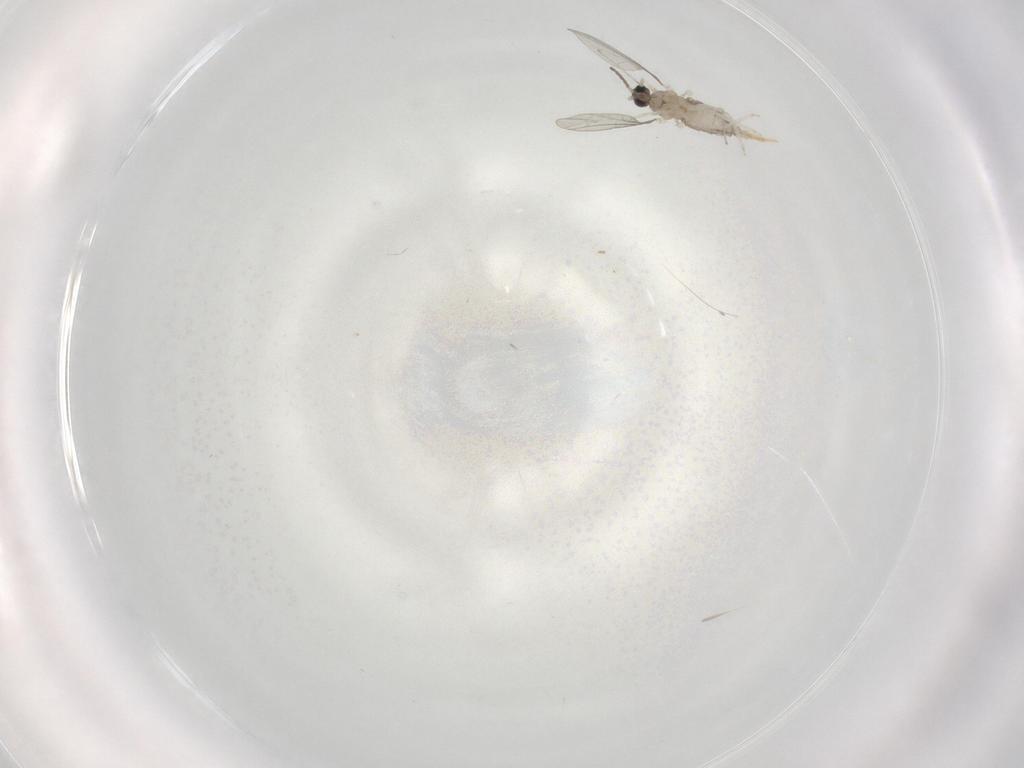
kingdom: Animalia
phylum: Arthropoda
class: Insecta
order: Diptera
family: Cecidomyiidae
